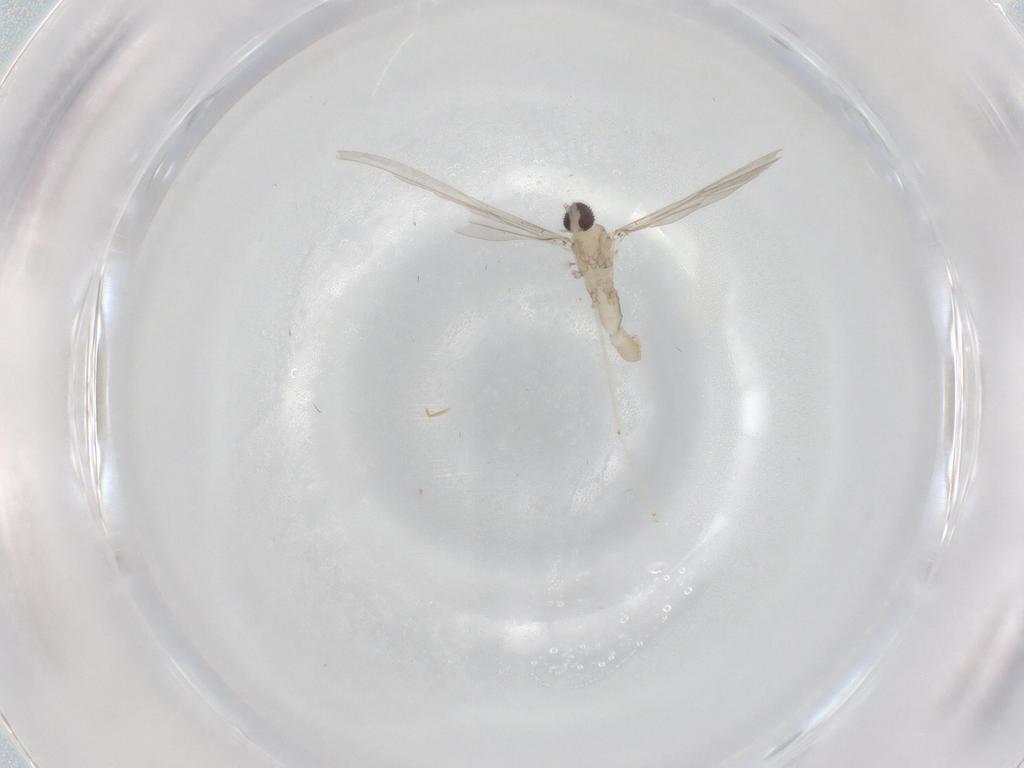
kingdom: Animalia
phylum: Arthropoda
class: Insecta
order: Diptera
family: Cecidomyiidae
